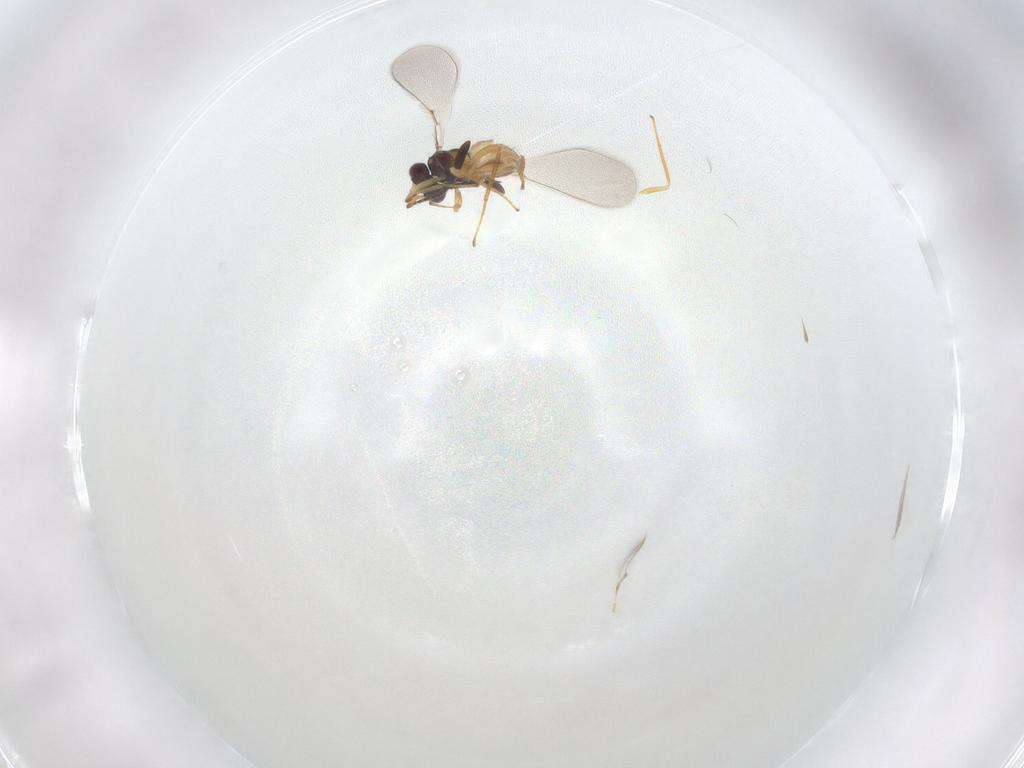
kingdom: Animalia
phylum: Arthropoda
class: Insecta
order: Hymenoptera
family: Mymaridae
